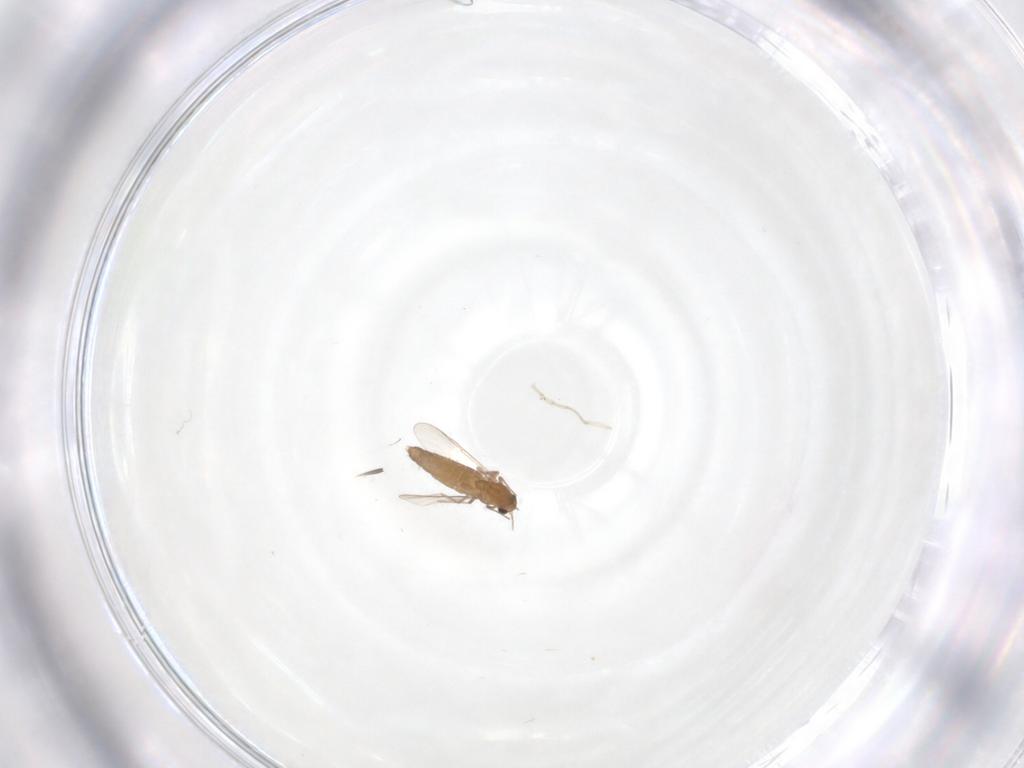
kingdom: Animalia
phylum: Arthropoda
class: Insecta
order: Diptera
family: Chironomidae
